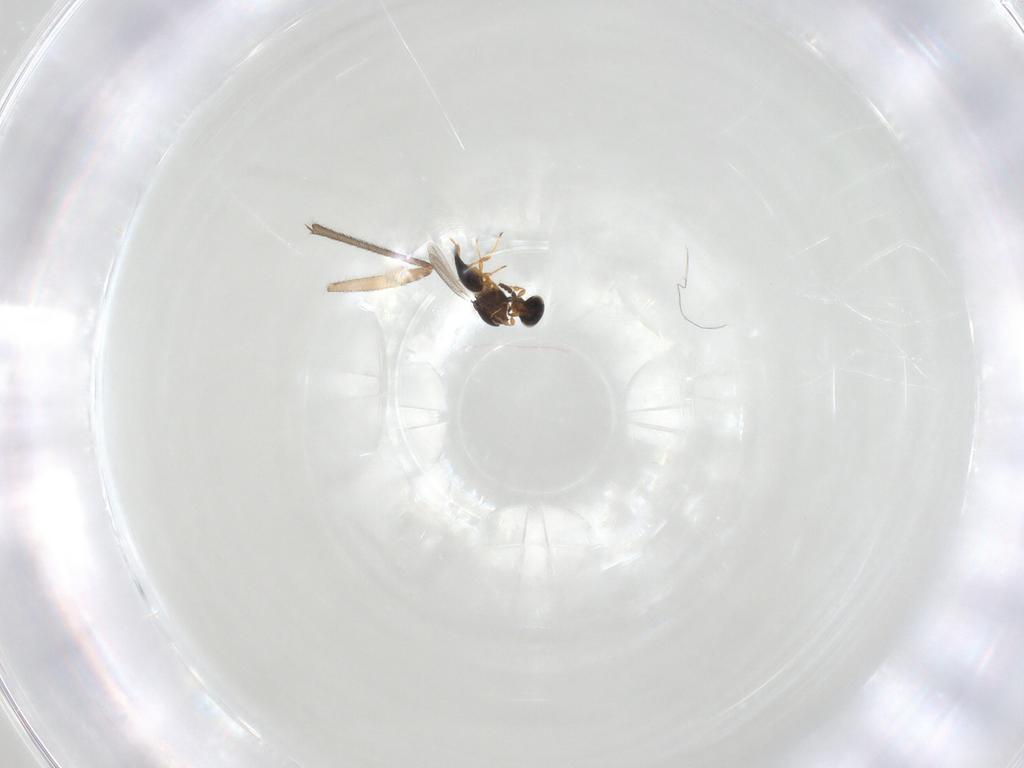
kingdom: Animalia
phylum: Arthropoda
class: Insecta
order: Hymenoptera
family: Platygastridae
